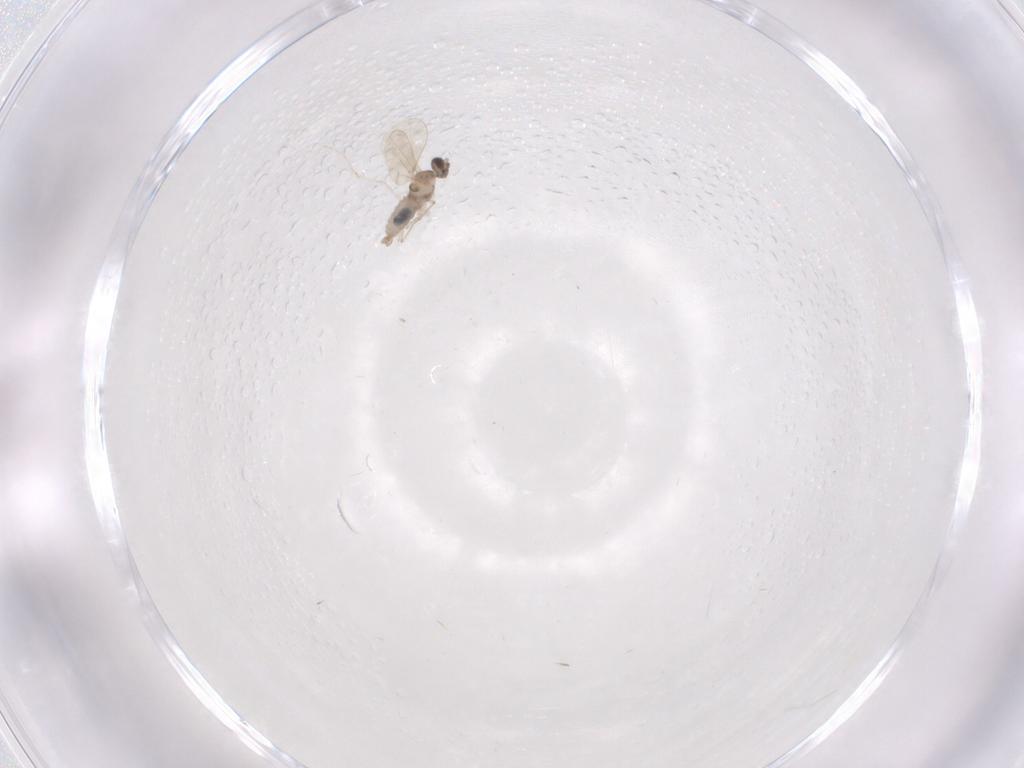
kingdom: Animalia
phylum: Arthropoda
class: Insecta
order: Diptera
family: Cecidomyiidae
